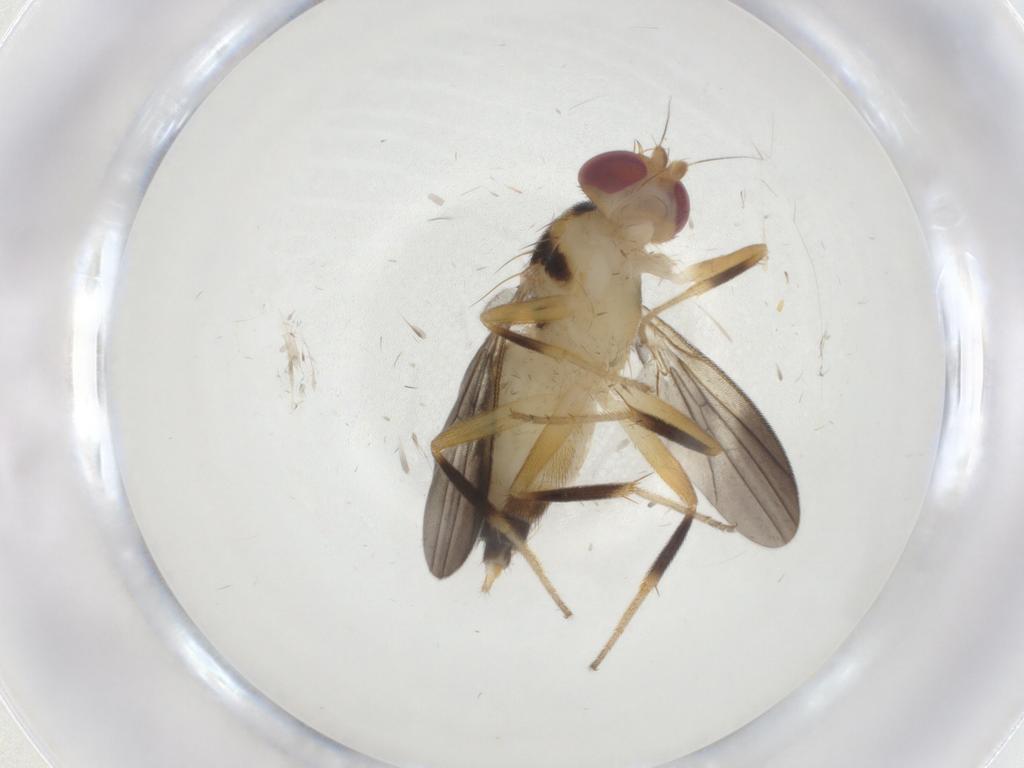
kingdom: Animalia
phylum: Arthropoda
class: Insecta
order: Diptera
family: Clusiidae
